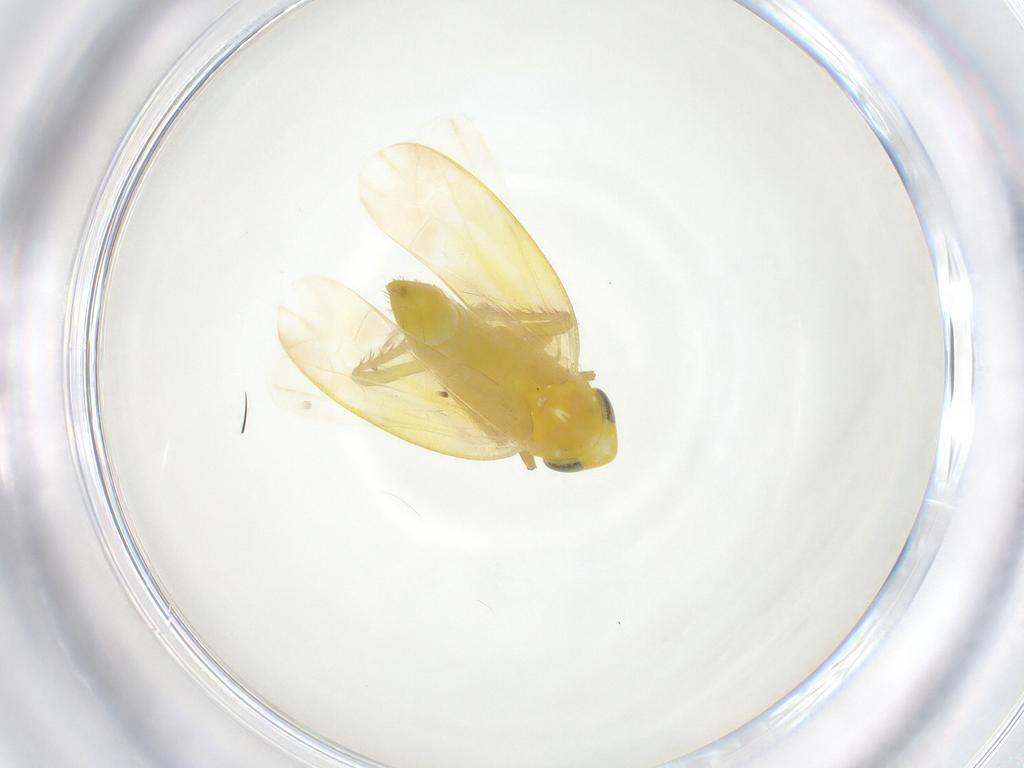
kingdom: Animalia
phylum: Arthropoda
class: Insecta
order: Hemiptera
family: Cicadellidae
